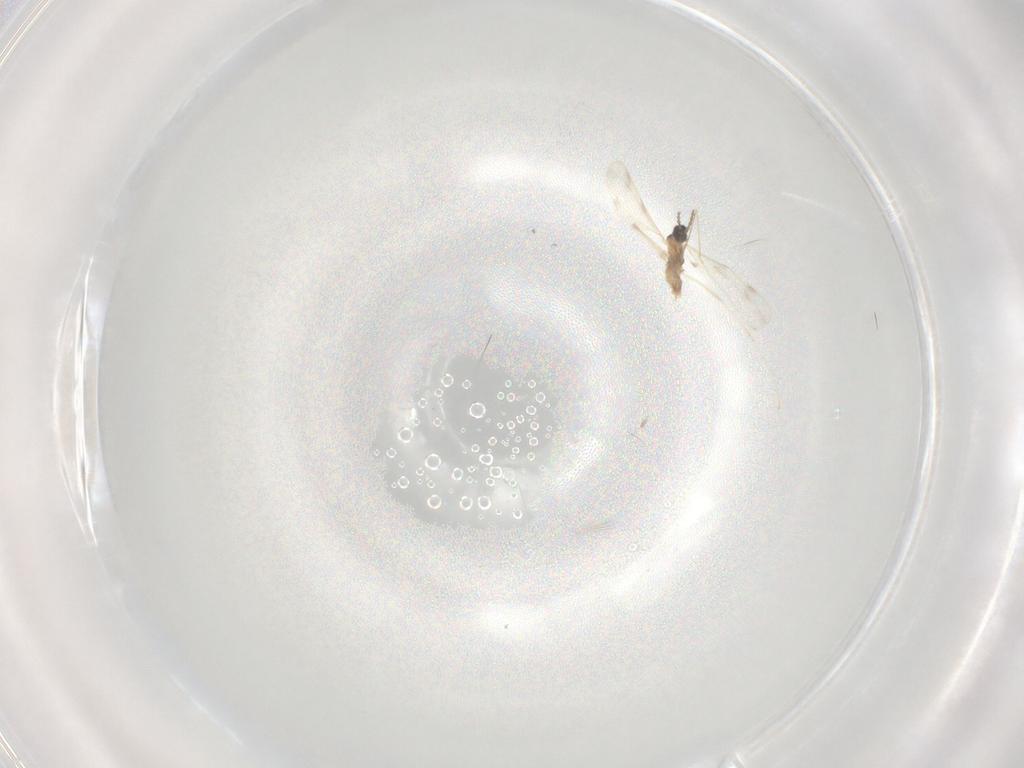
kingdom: Animalia
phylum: Arthropoda
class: Insecta
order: Diptera
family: Cecidomyiidae
